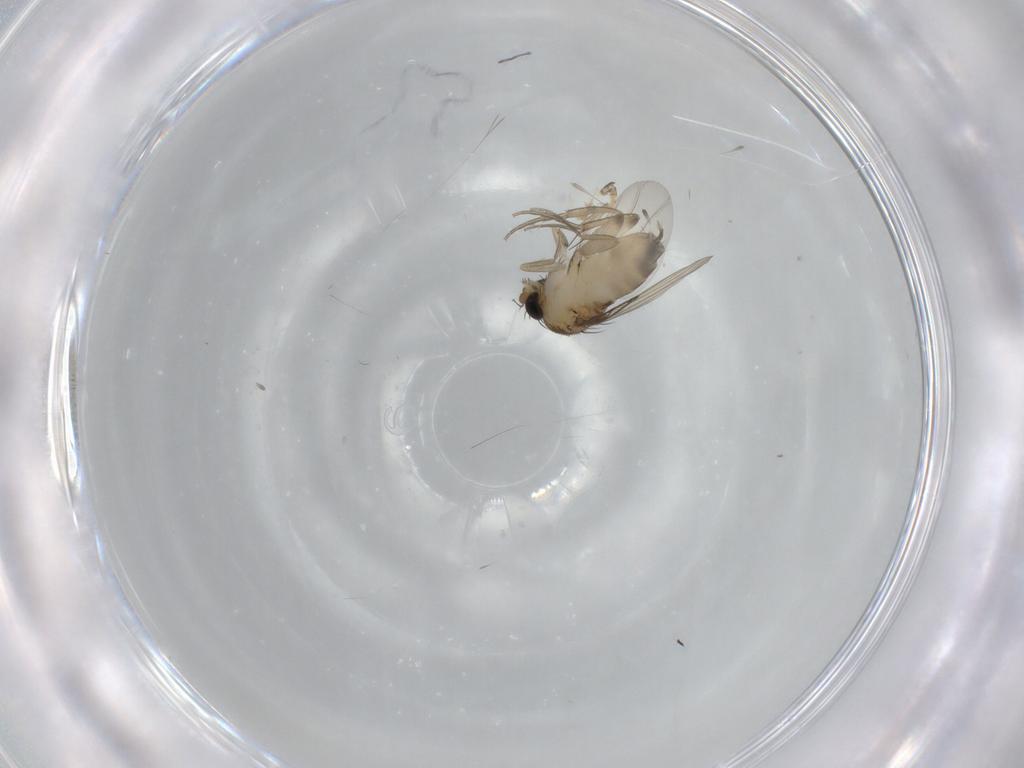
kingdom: Animalia
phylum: Arthropoda
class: Insecta
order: Diptera
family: Phoridae
